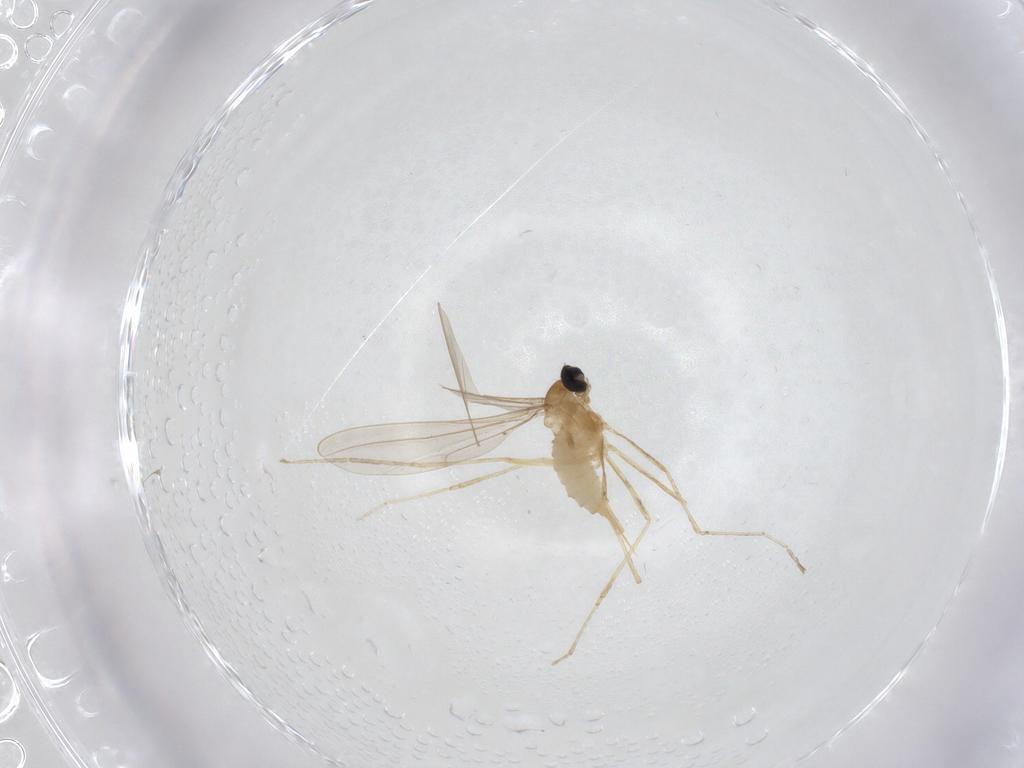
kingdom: Animalia
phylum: Arthropoda
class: Insecta
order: Diptera
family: Cecidomyiidae
